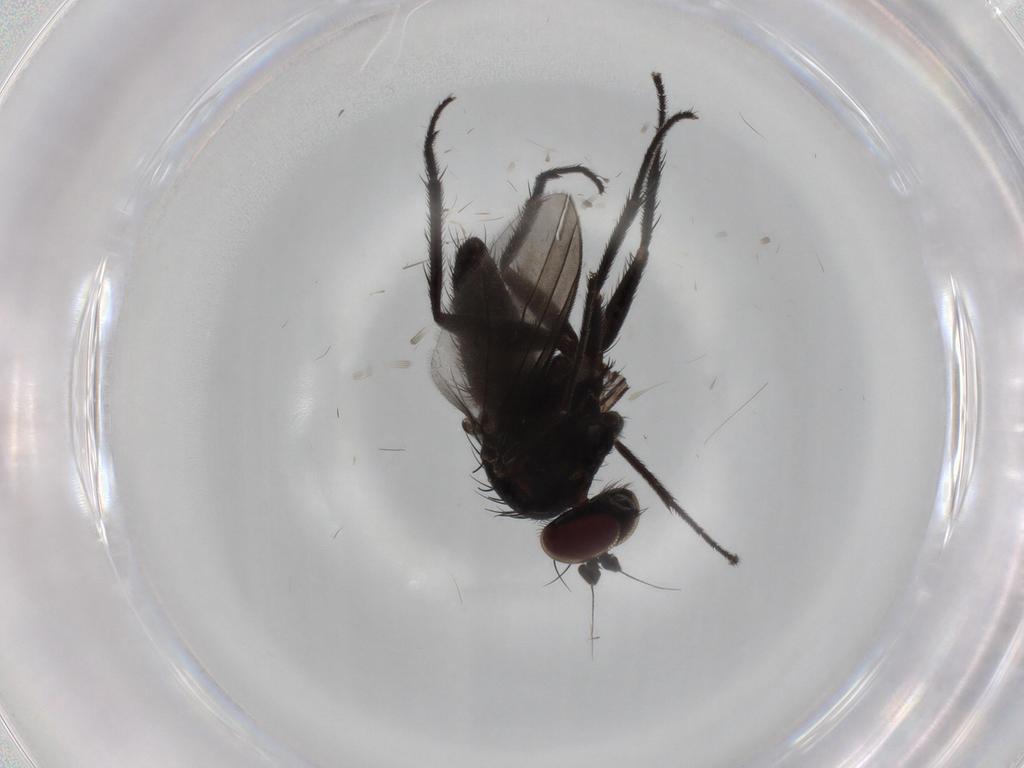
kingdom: Animalia
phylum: Arthropoda
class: Insecta
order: Diptera
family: Dolichopodidae
